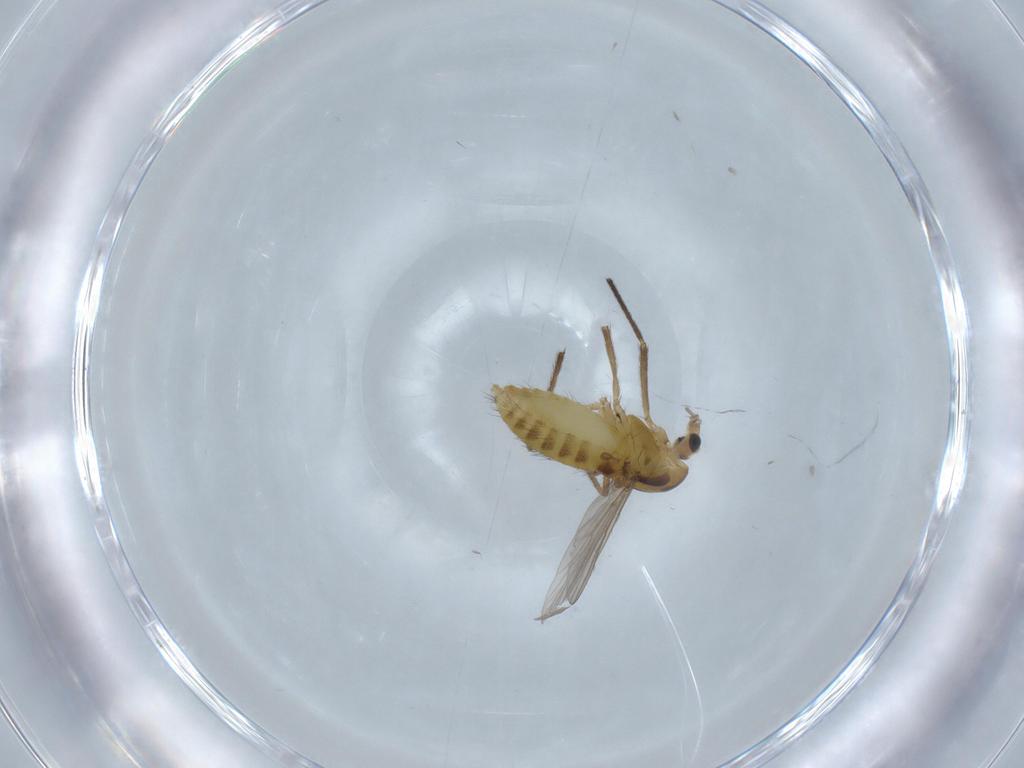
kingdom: Animalia
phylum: Arthropoda
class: Insecta
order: Diptera
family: Chironomidae
